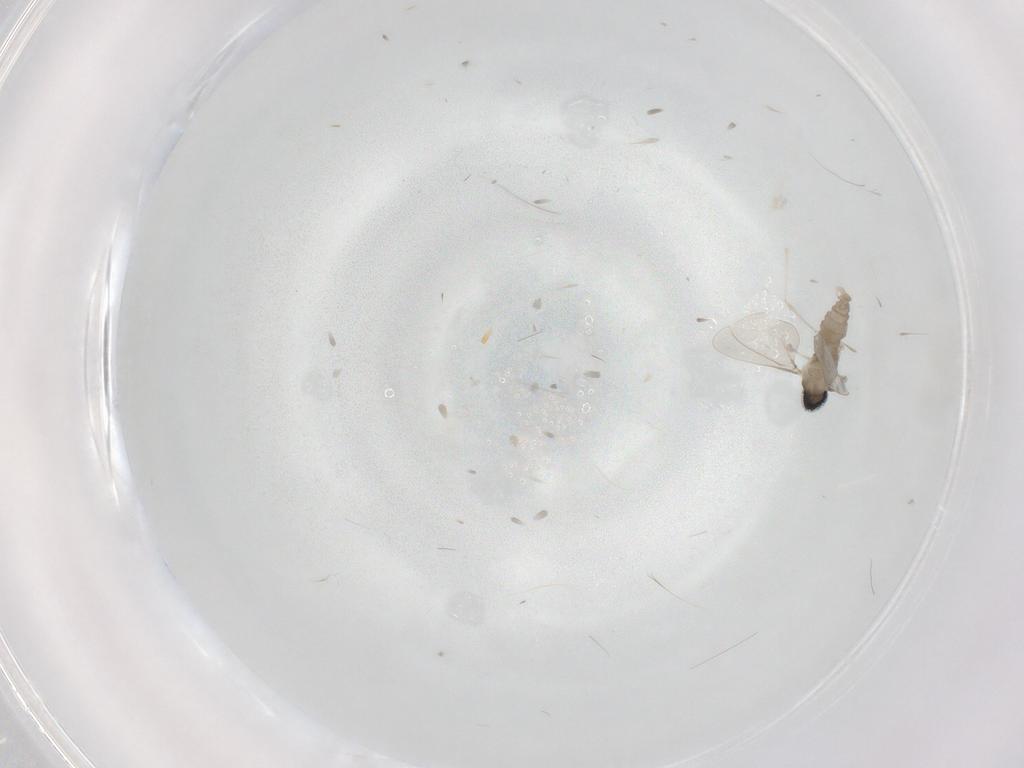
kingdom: Animalia
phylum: Arthropoda
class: Insecta
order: Diptera
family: Cecidomyiidae
